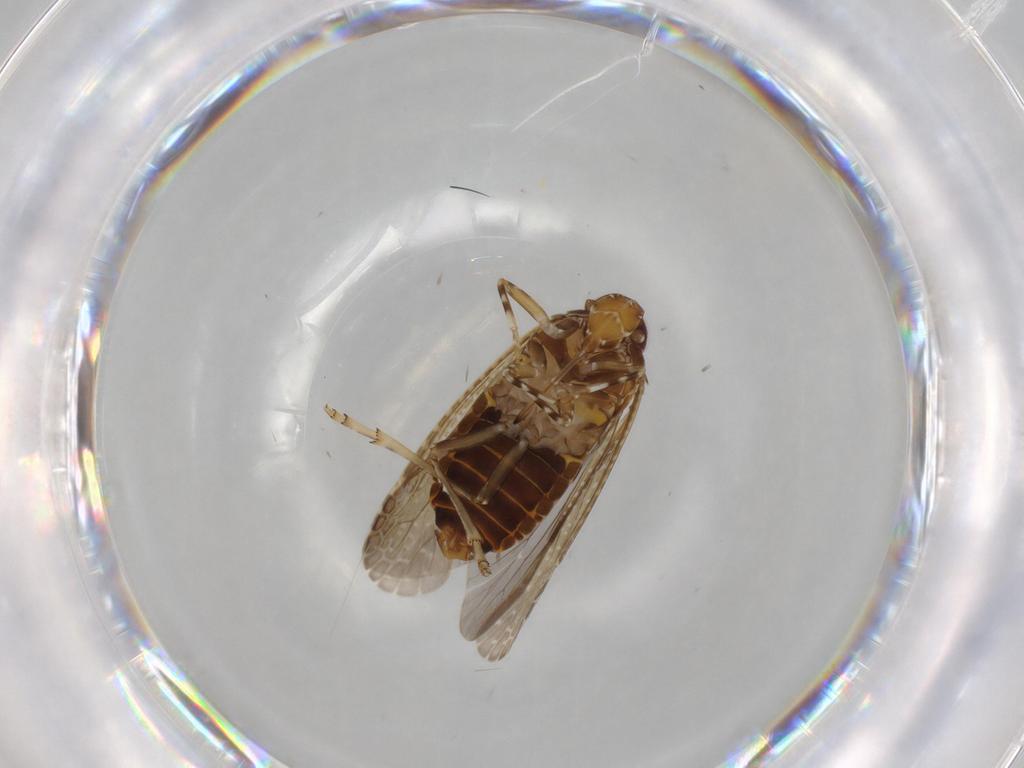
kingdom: Animalia
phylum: Arthropoda
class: Insecta
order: Hemiptera
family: Achilidae
